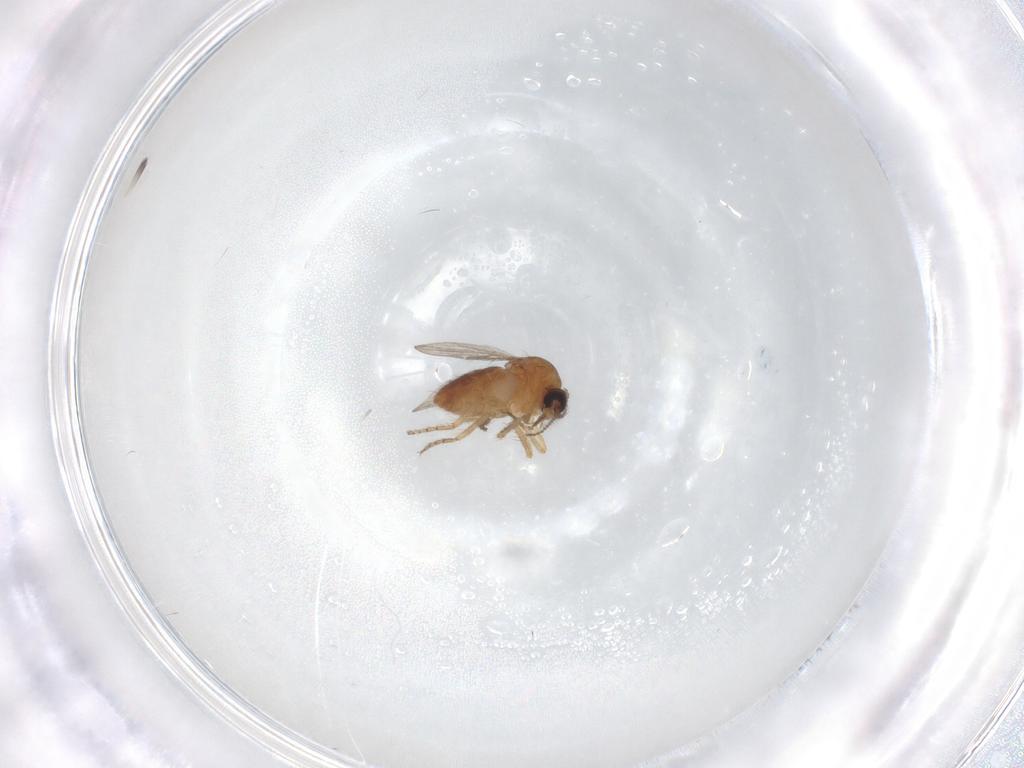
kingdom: Animalia
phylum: Arthropoda
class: Insecta
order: Diptera
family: Ceratopogonidae
